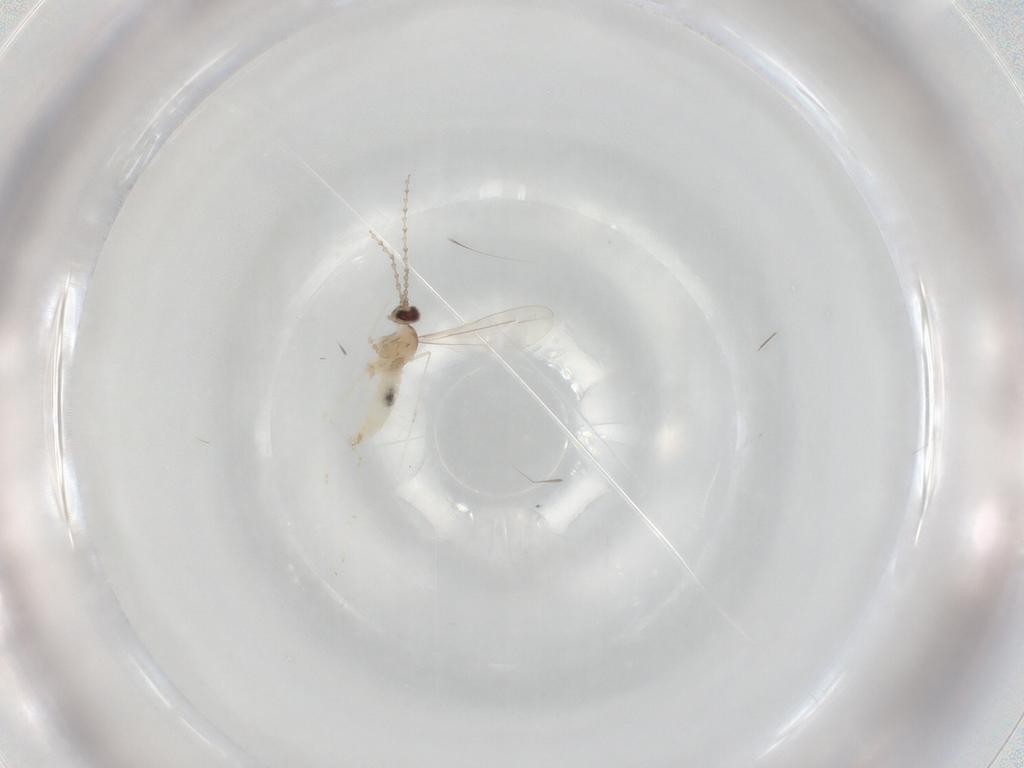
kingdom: Animalia
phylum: Arthropoda
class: Insecta
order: Diptera
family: Cecidomyiidae
